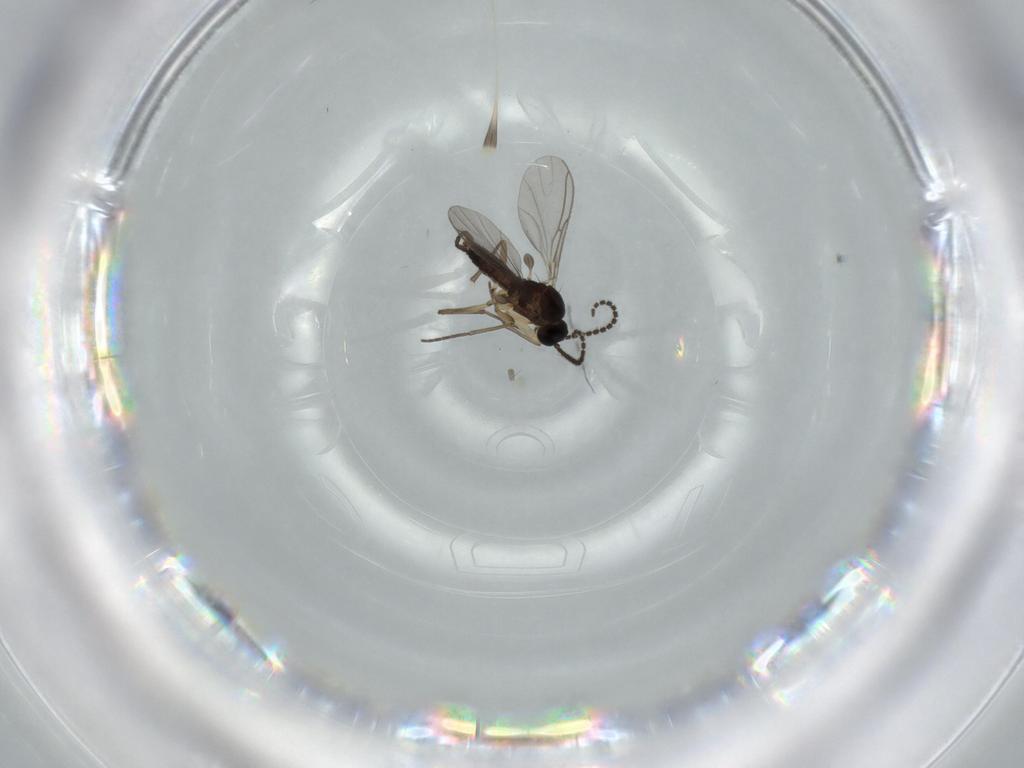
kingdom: Animalia
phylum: Arthropoda
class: Insecta
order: Diptera
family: Sciaridae
